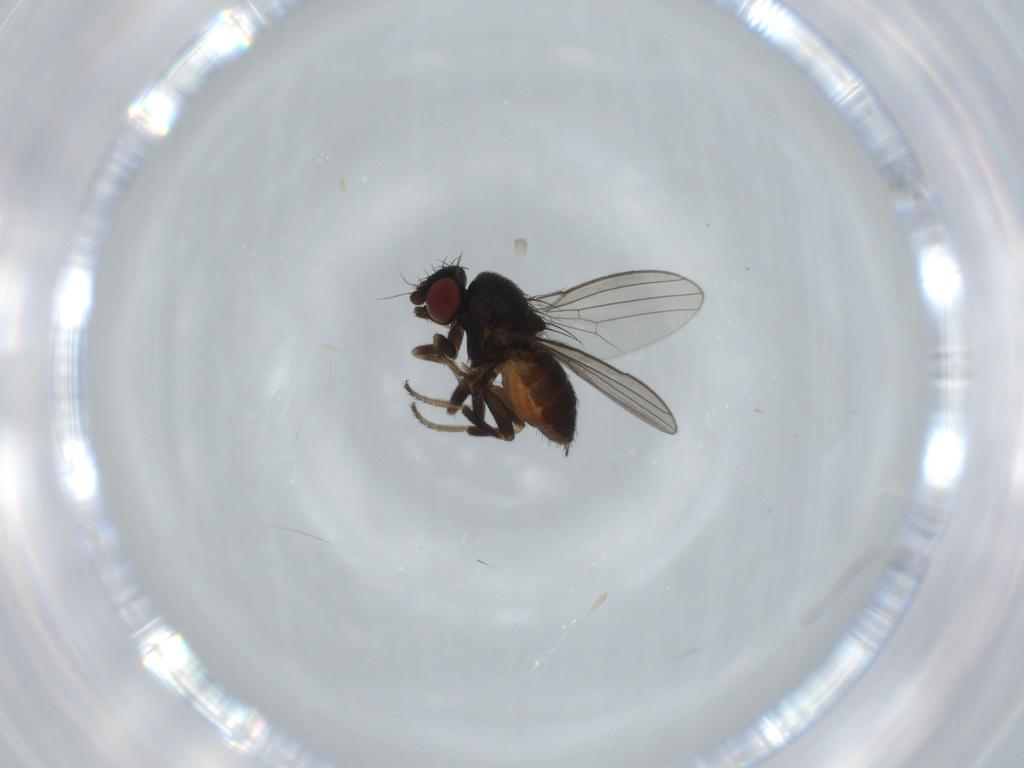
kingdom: Animalia
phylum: Arthropoda
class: Insecta
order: Diptera
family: Milichiidae
